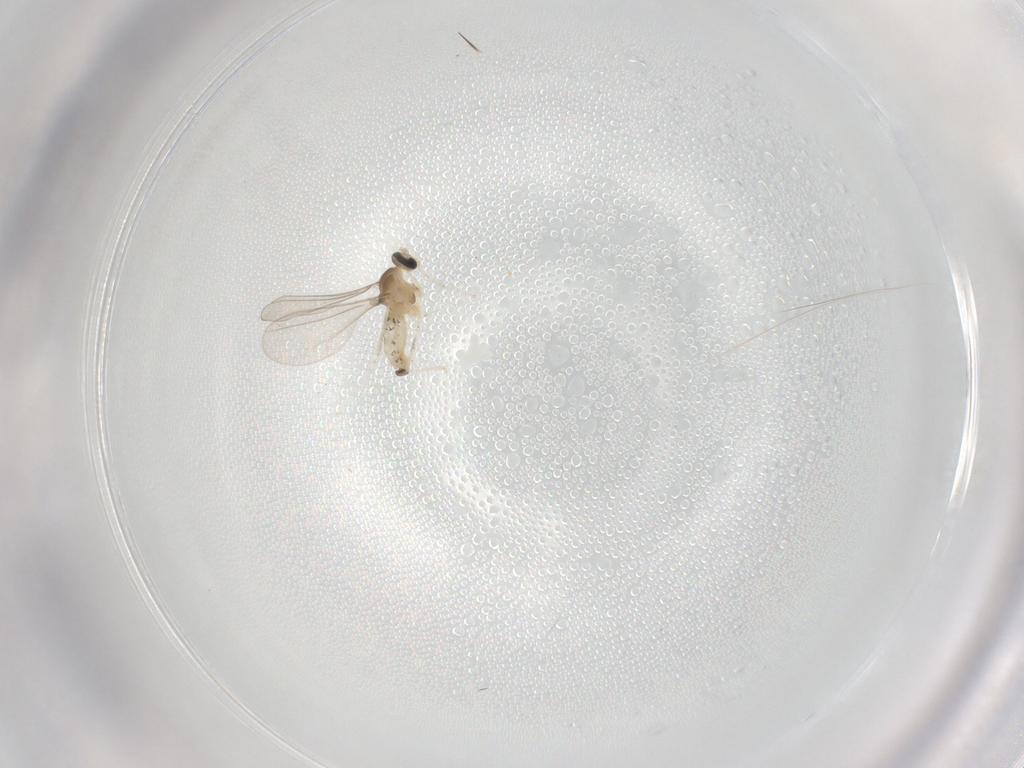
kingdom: Animalia
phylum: Arthropoda
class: Insecta
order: Diptera
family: Cecidomyiidae
